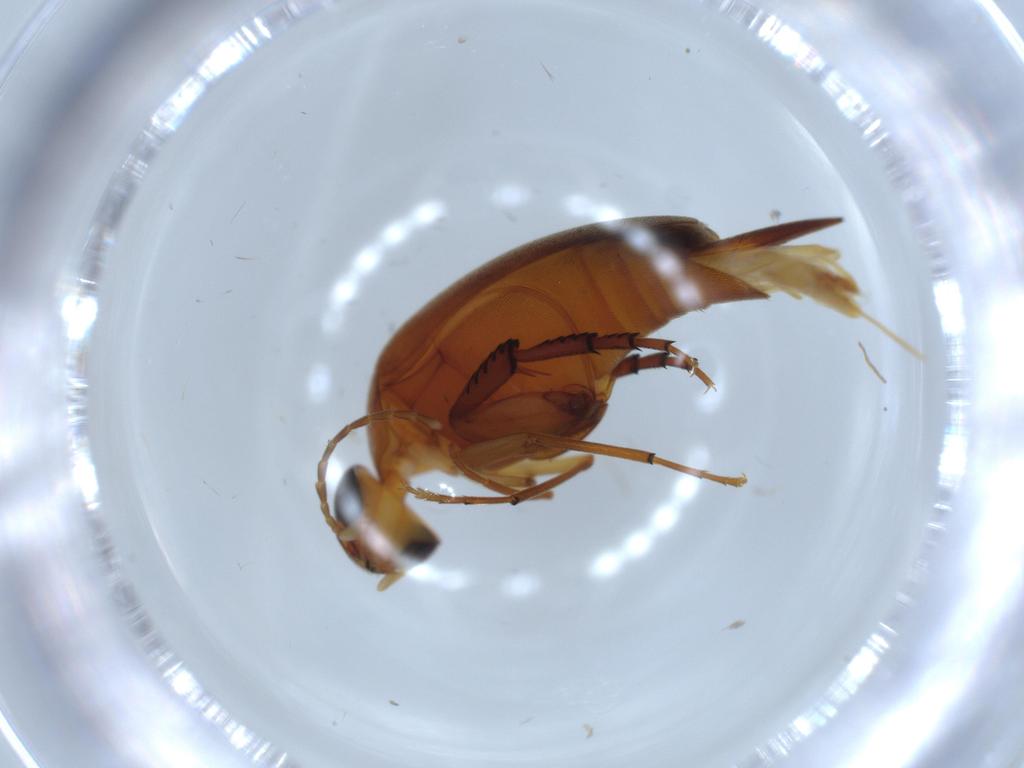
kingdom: Animalia
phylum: Arthropoda
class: Insecta
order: Coleoptera
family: Mordellidae
